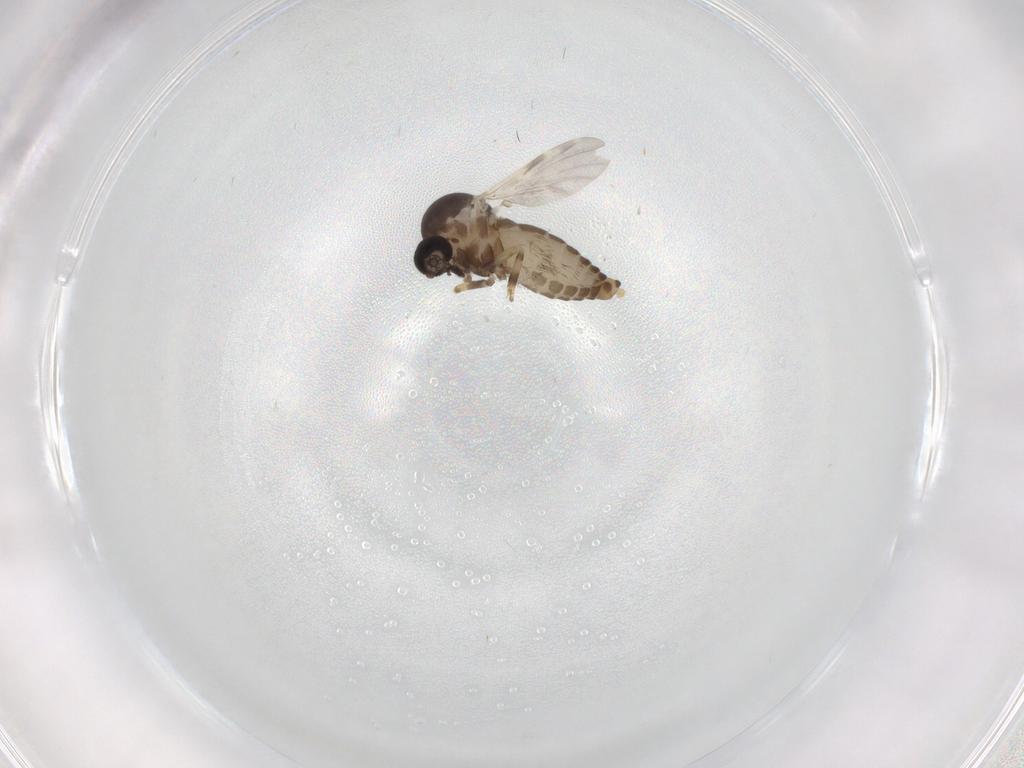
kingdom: Animalia
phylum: Arthropoda
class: Insecta
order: Diptera
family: Ceratopogonidae
